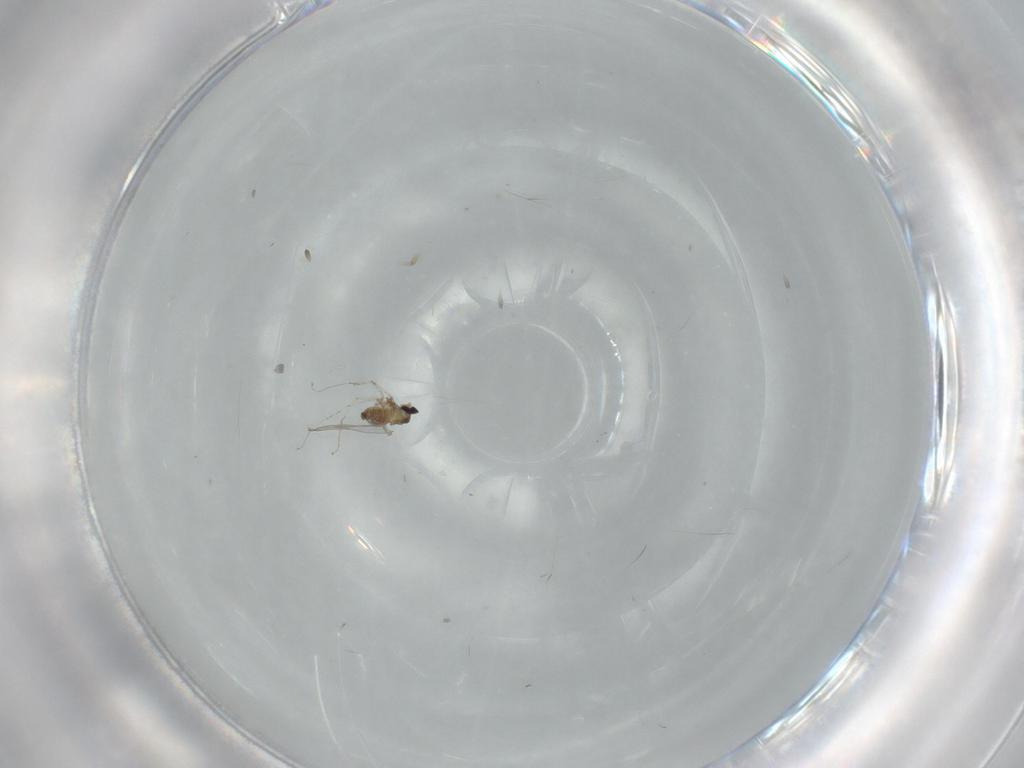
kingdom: Animalia
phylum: Arthropoda
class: Insecta
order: Diptera
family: Cecidomyiidae
